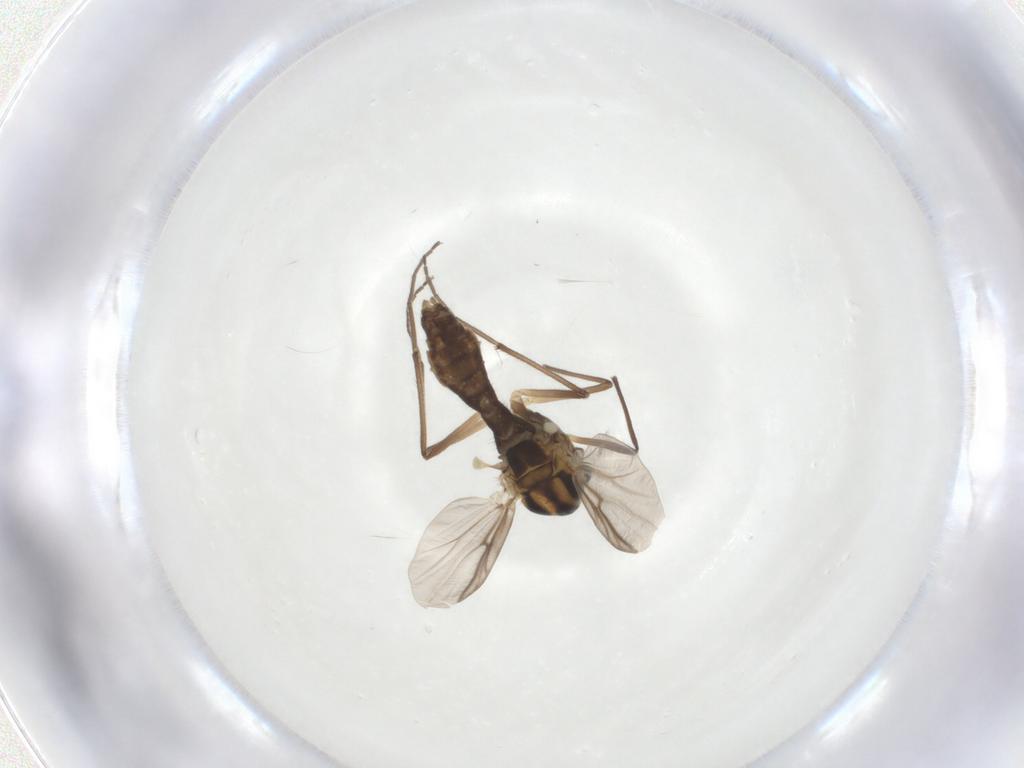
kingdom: Animalia
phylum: Arthropoda
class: Insecta
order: Diptera
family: Chironomidae
